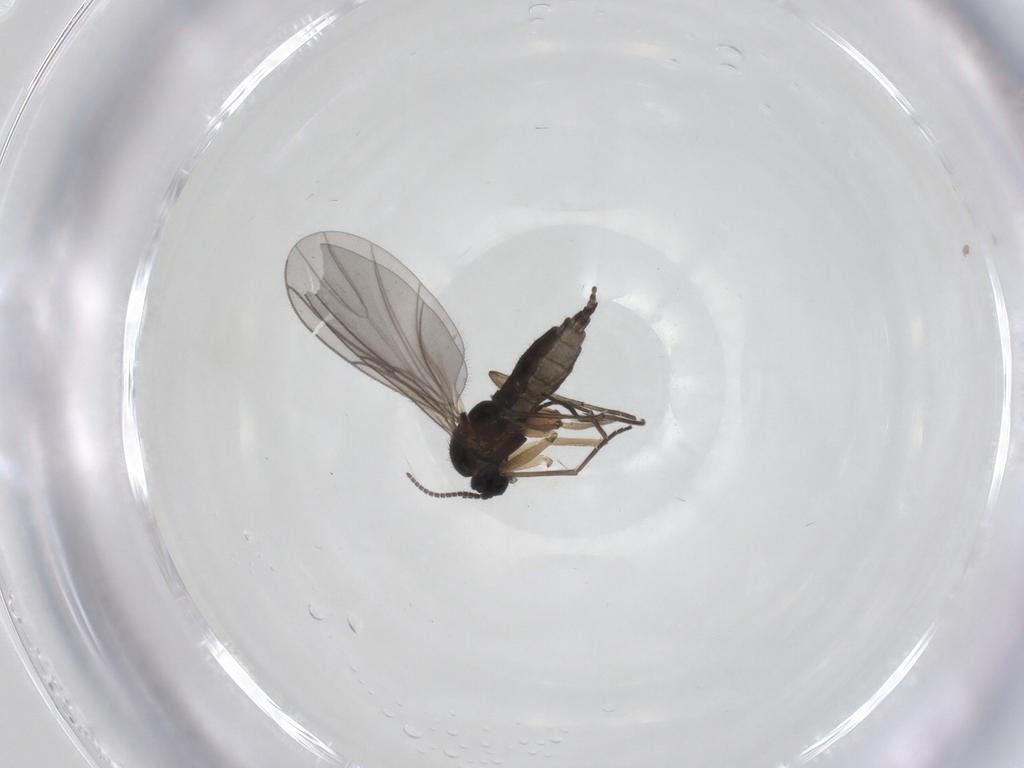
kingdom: Animalia
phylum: Arthropoda
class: Insecta
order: Diptera
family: Sciaridae
